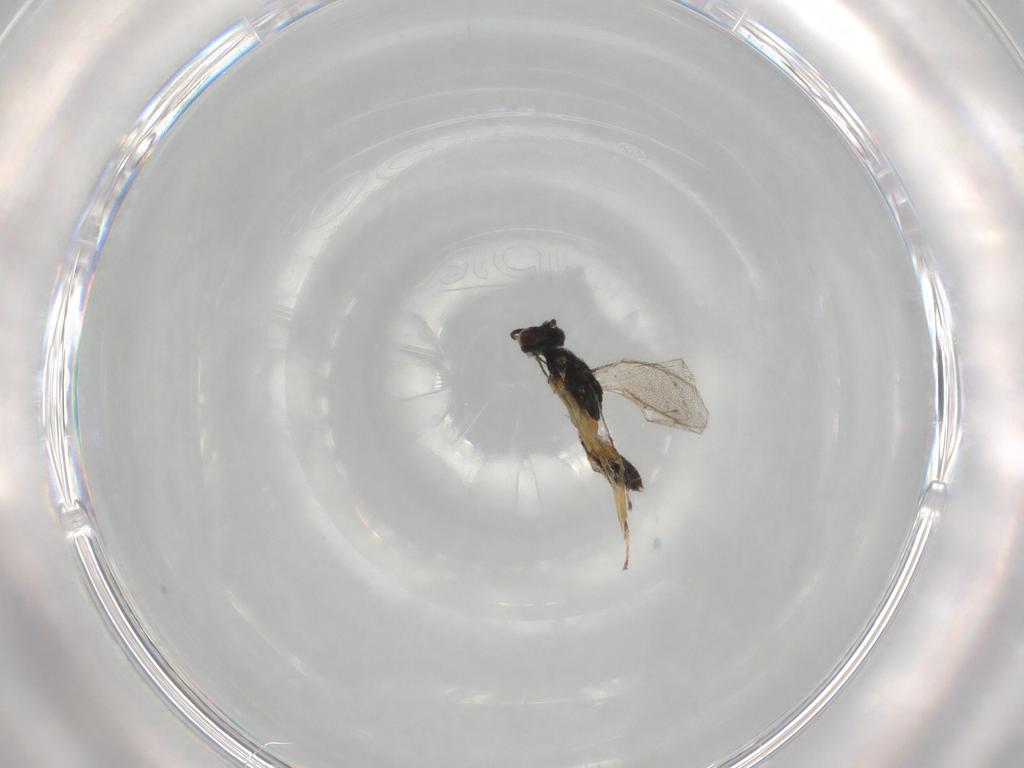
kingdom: Animalia
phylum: Arthropoda
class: Insecta
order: Hymenoptera
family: Eulophidae
